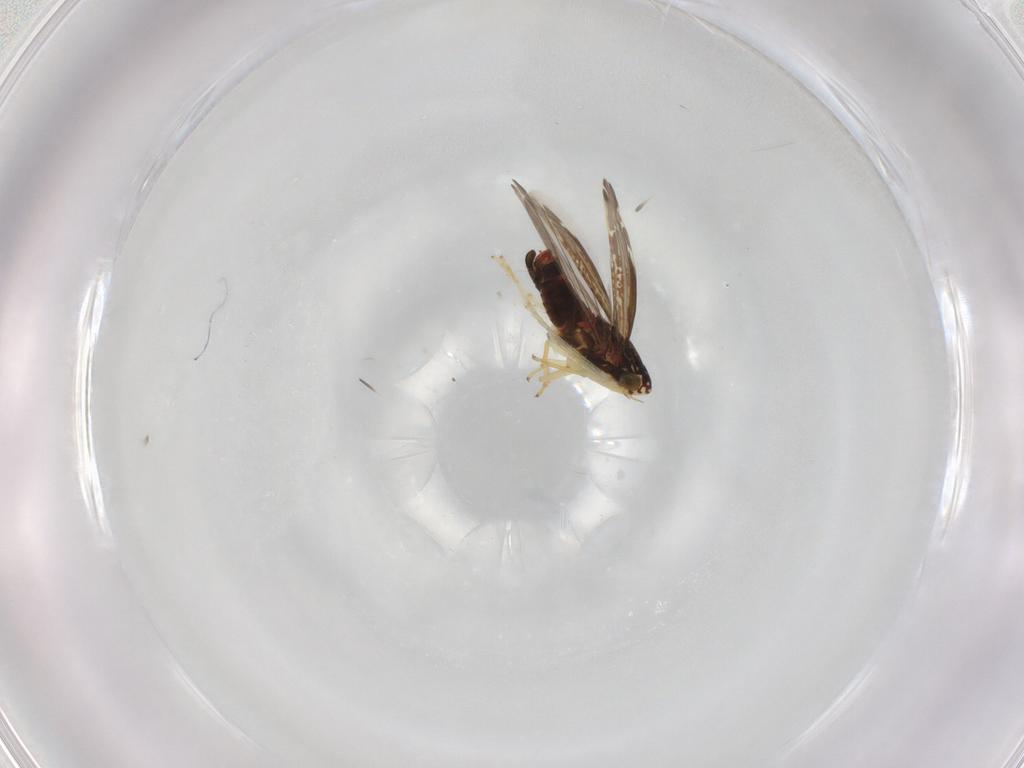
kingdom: Animalia
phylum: Arthropoda
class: Insecta
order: Hemiptera
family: Cicadellidae
